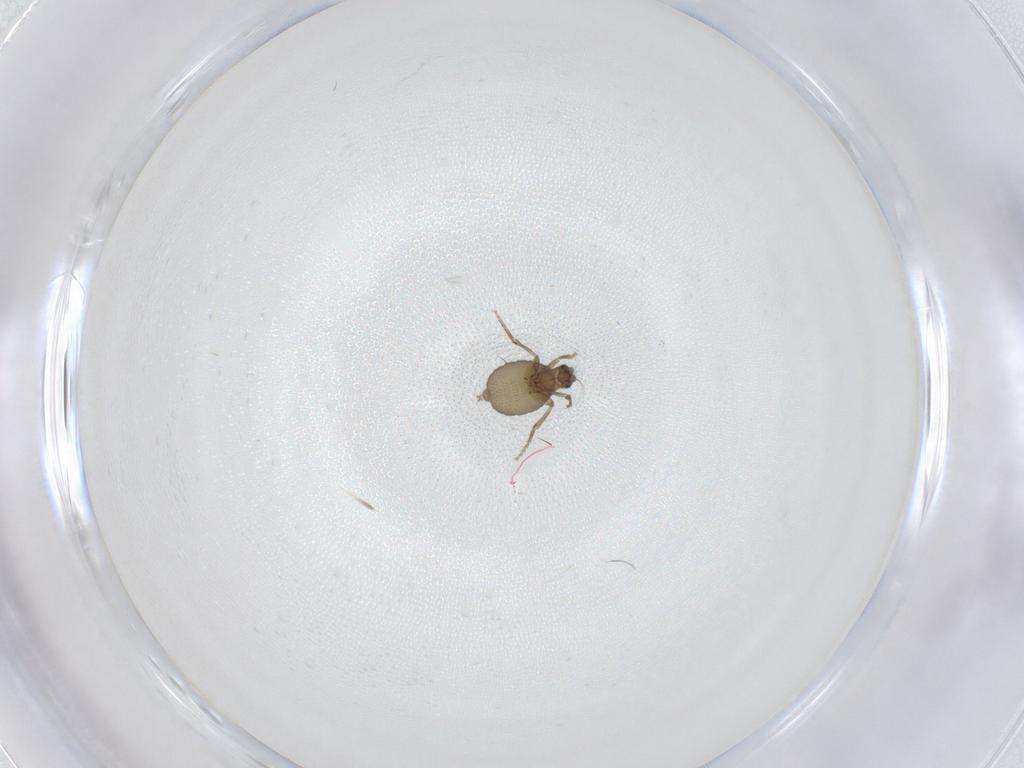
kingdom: Animalia
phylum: Arthropoda
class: Insecta
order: Diptera
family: Phoridae
